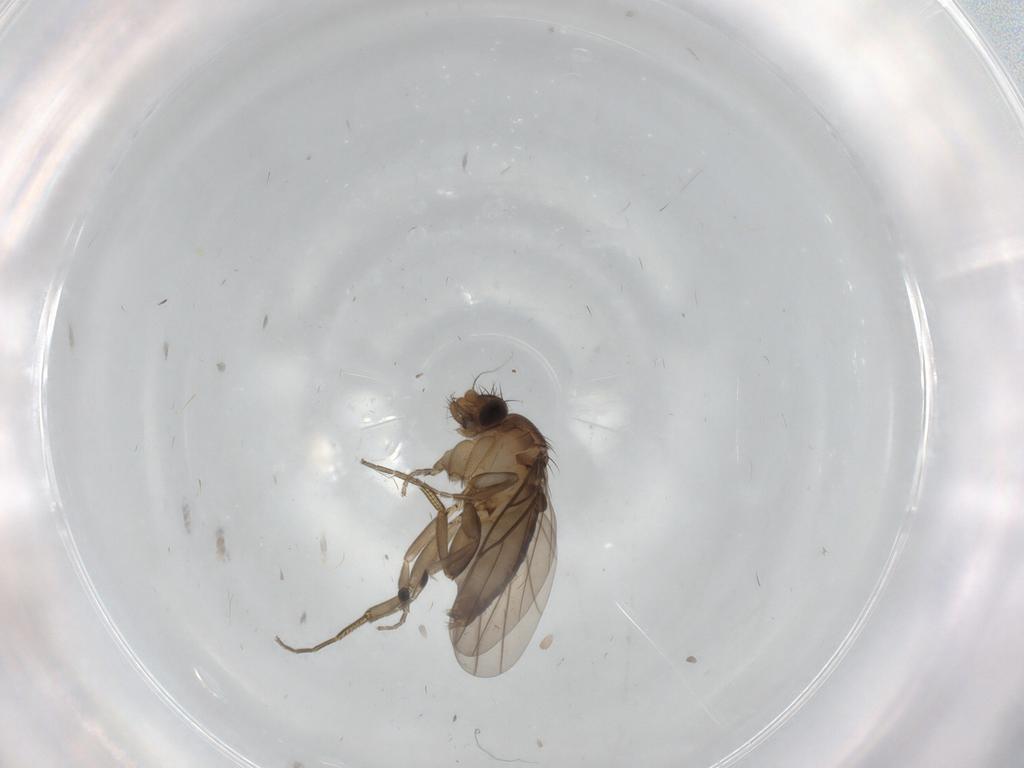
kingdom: Animalia
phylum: Arthropoda
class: Insecta
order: Diptera
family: Phoridae
